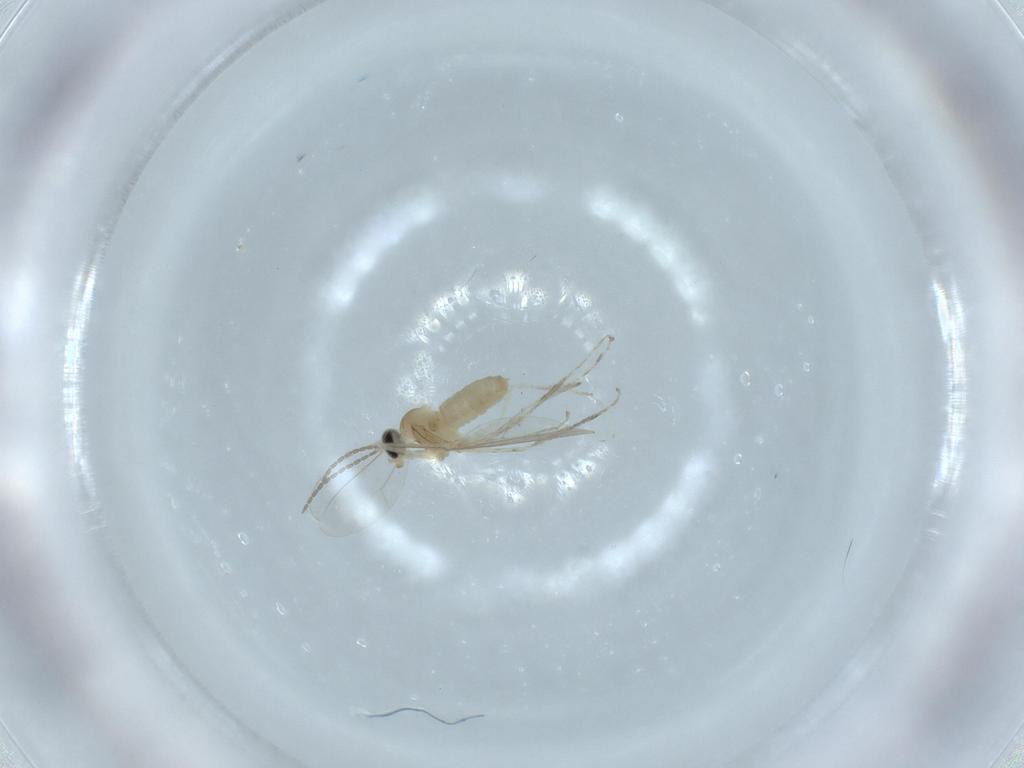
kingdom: Animalia
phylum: Arthropoda
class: Insecta
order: Diptera
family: Cecidomyiidae
